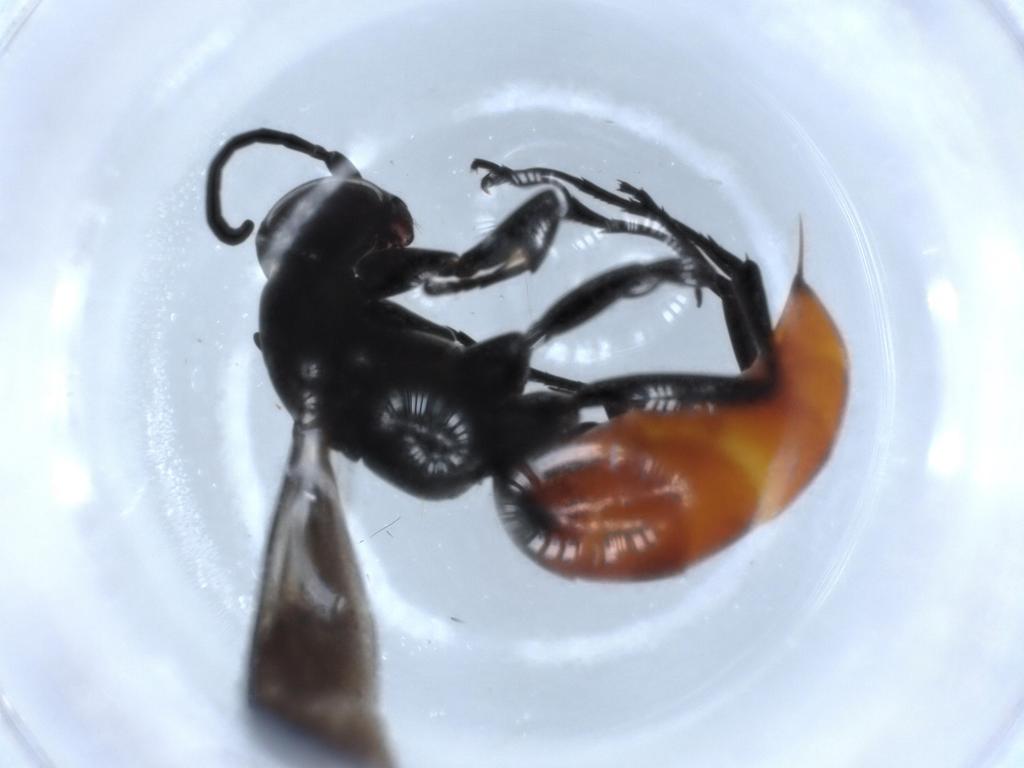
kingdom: Animalia
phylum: Arthropoda
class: Insecta
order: Hymenoptera
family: Pompilidae
